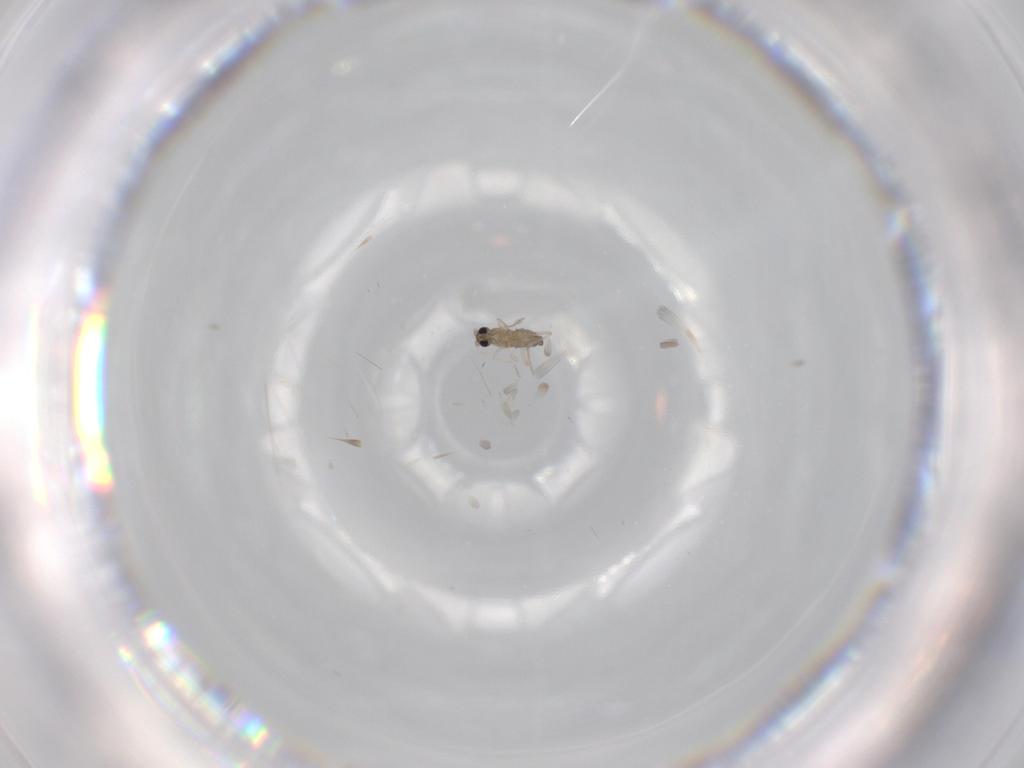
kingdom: Animalia
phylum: Arthropoda
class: Insecta
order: Diptera
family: Cecidomyiidae
